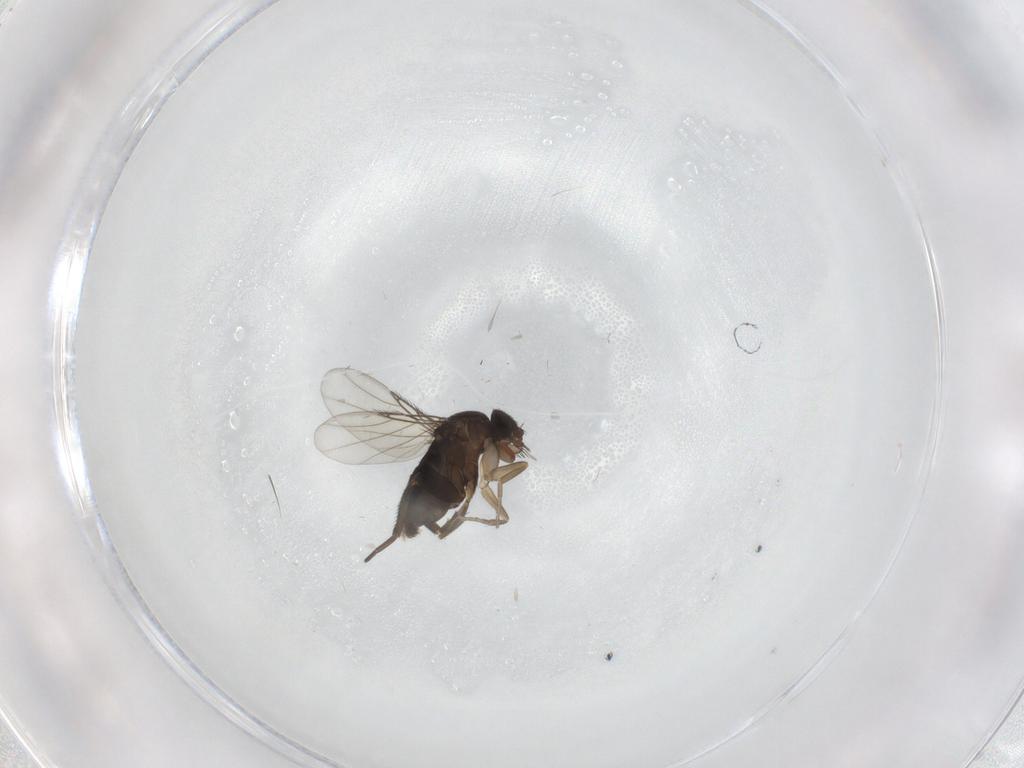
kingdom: Animalia
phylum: Arthropoda
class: Insecta
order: Diptera
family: Phoridae
